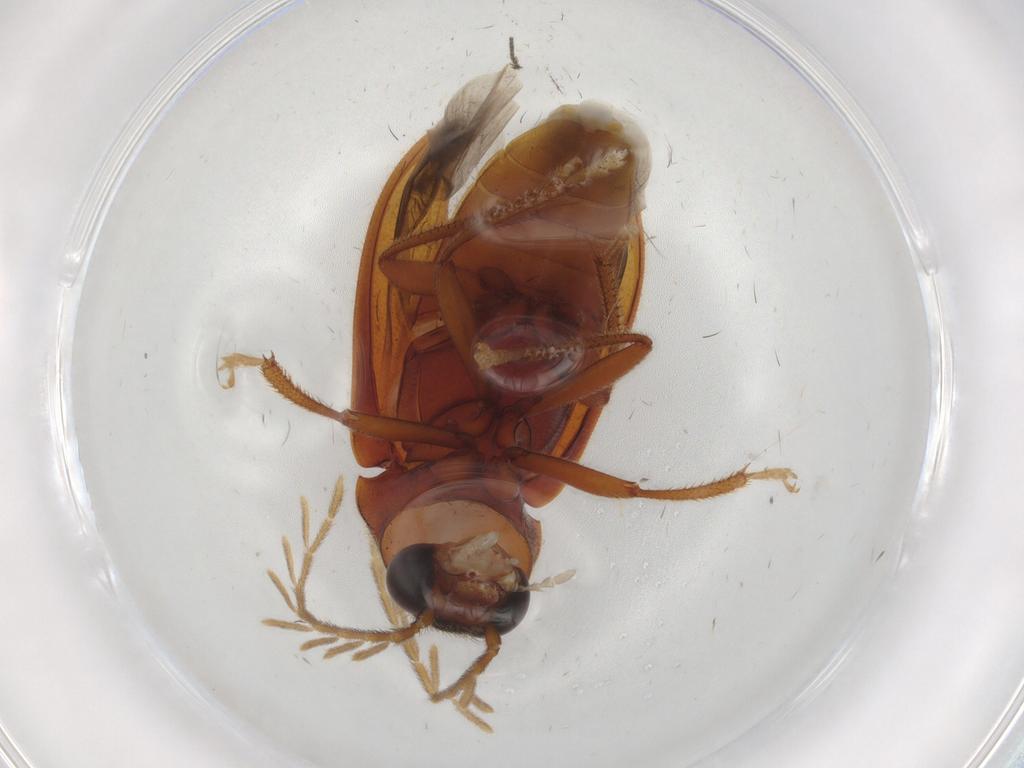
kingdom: Animalia
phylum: Arthropoda
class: Insecta
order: Coleoptera
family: Ptilodactylidae
